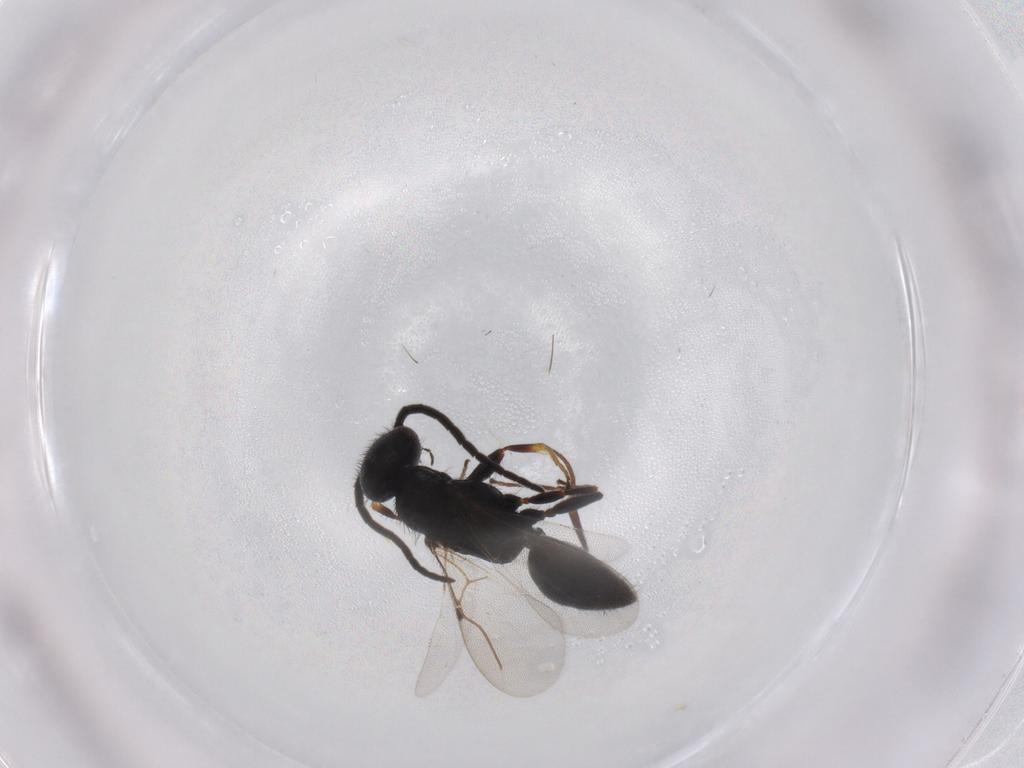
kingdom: Animalia
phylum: Arthropoda
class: Insecta
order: Hymenoptera
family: Bethylidae
